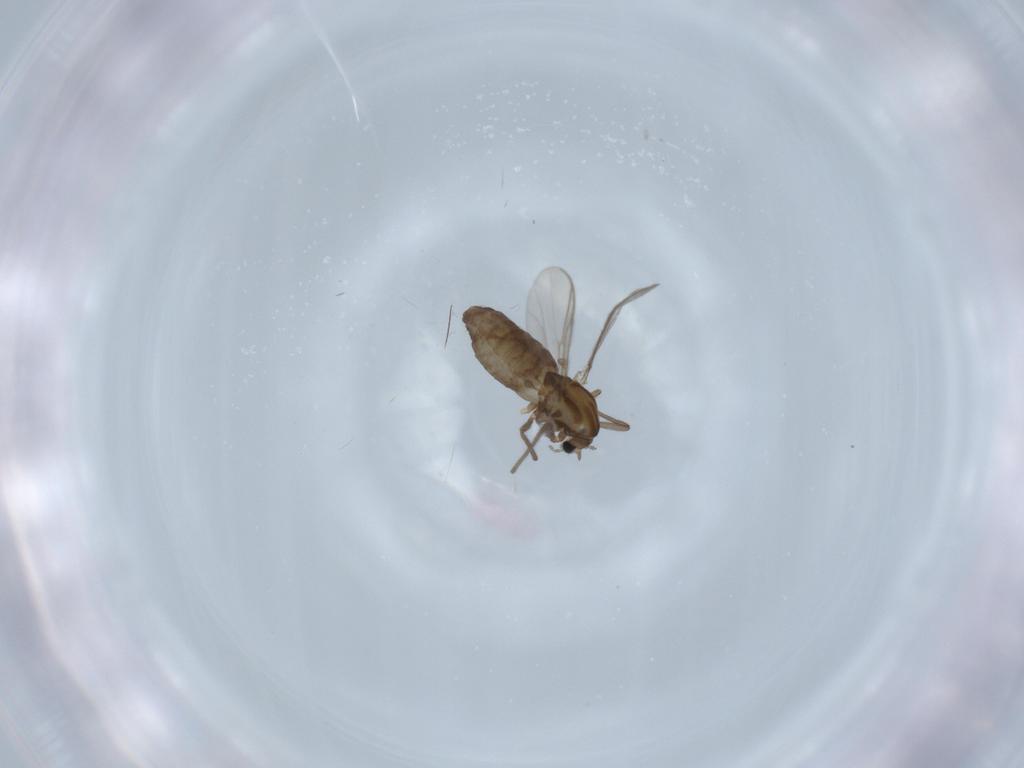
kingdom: Animalia
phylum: Arthropoda
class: Insecta
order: Diptera
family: Chironomidae
